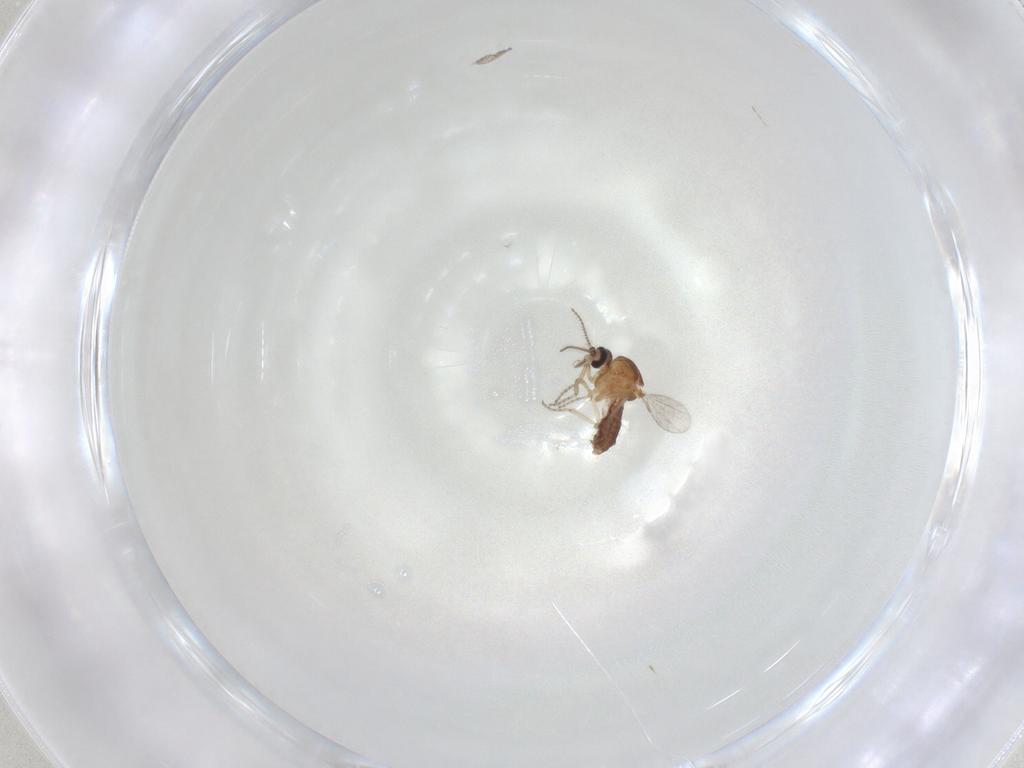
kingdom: Animalia
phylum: Arthropoda
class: Insecta
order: Diptera
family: Ceratopogonidae
